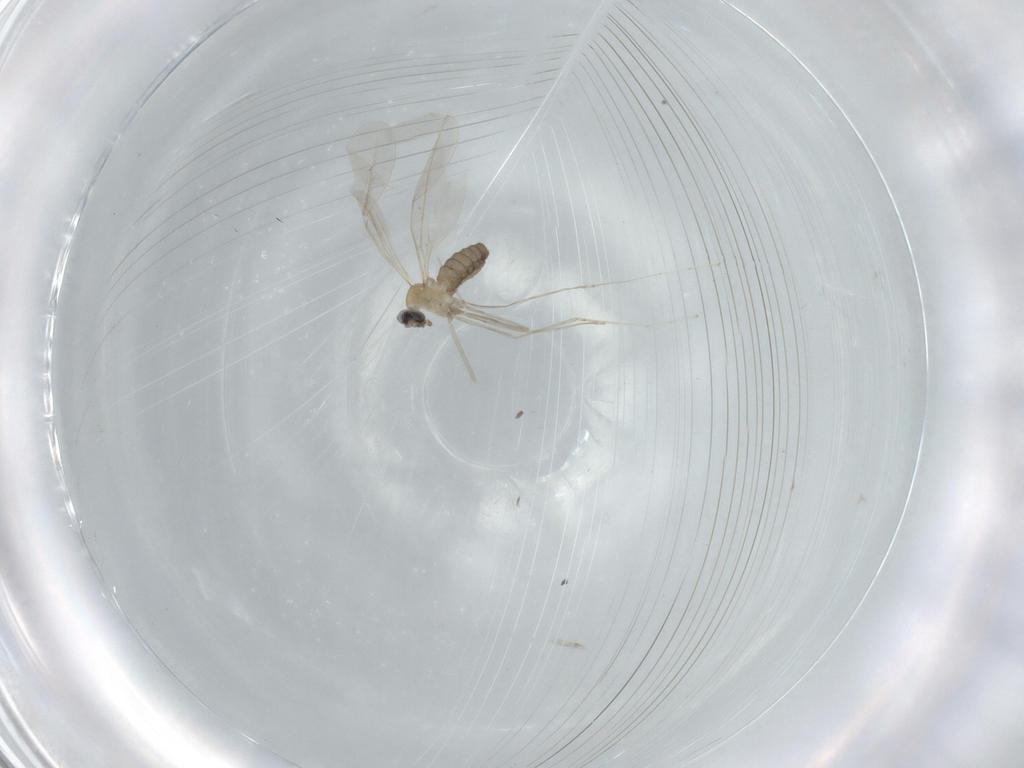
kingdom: Animalia
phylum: Arthropoda
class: Insecta
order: Diptera
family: Cecidomyiidae
